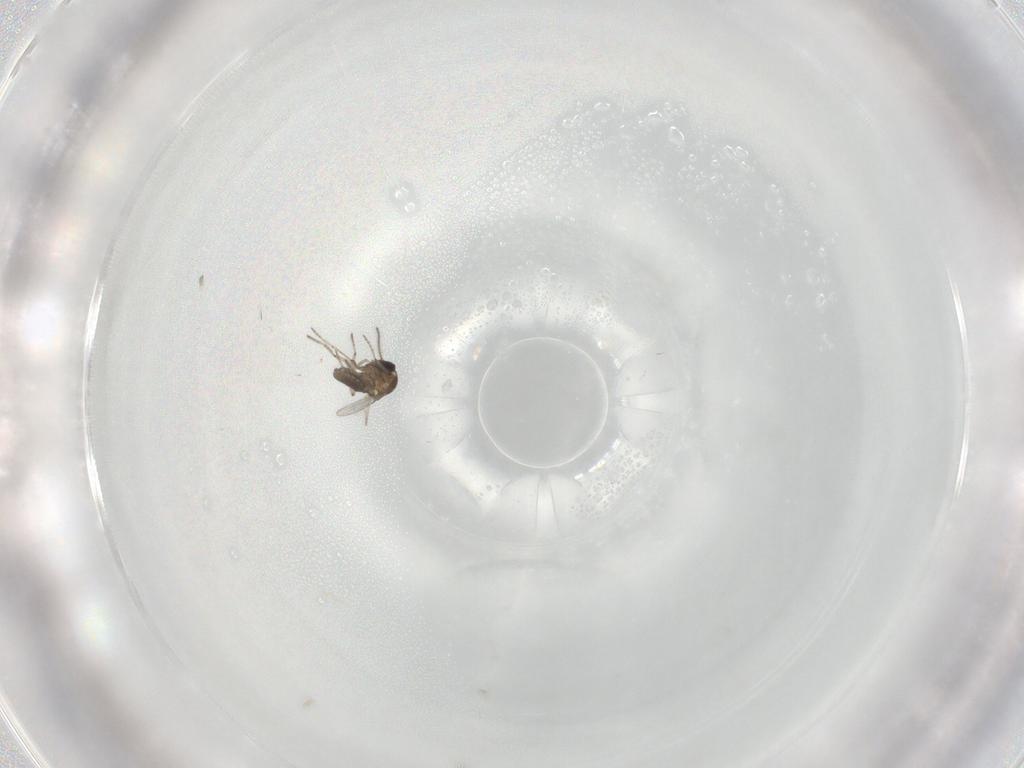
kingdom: Animalia
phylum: Arthropoda
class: Insecta
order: Diptera
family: Ceratopogonidae
